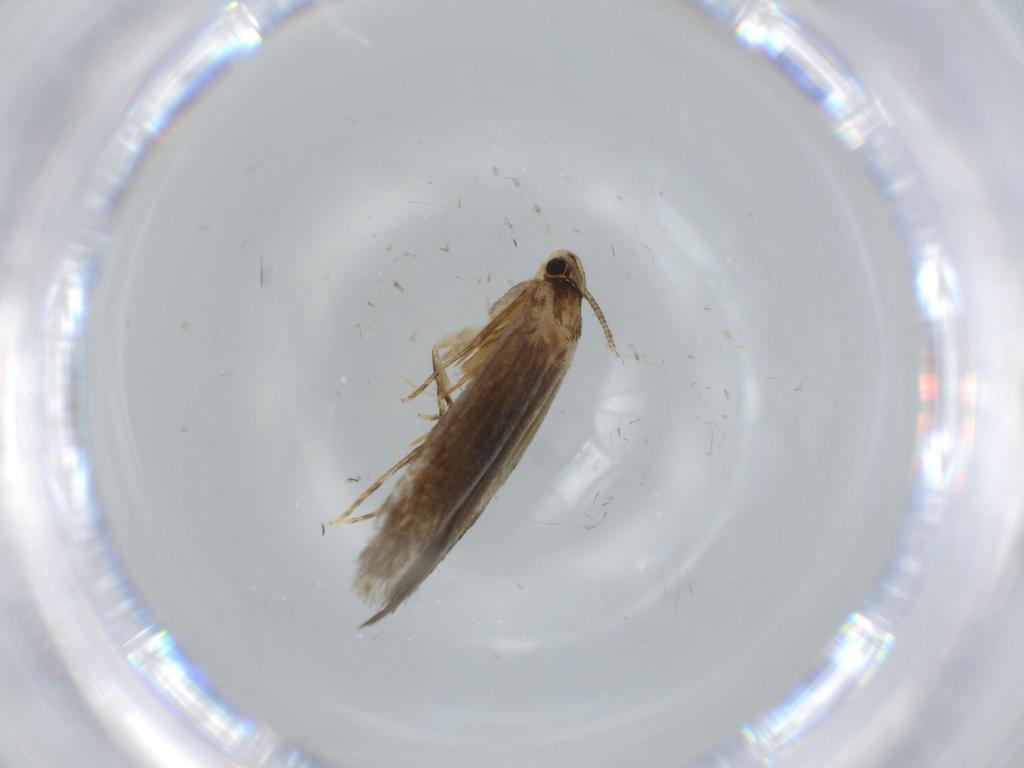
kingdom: Animalia
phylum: Arthropoda
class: Insecta
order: Lepidoptera
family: Tineidae
